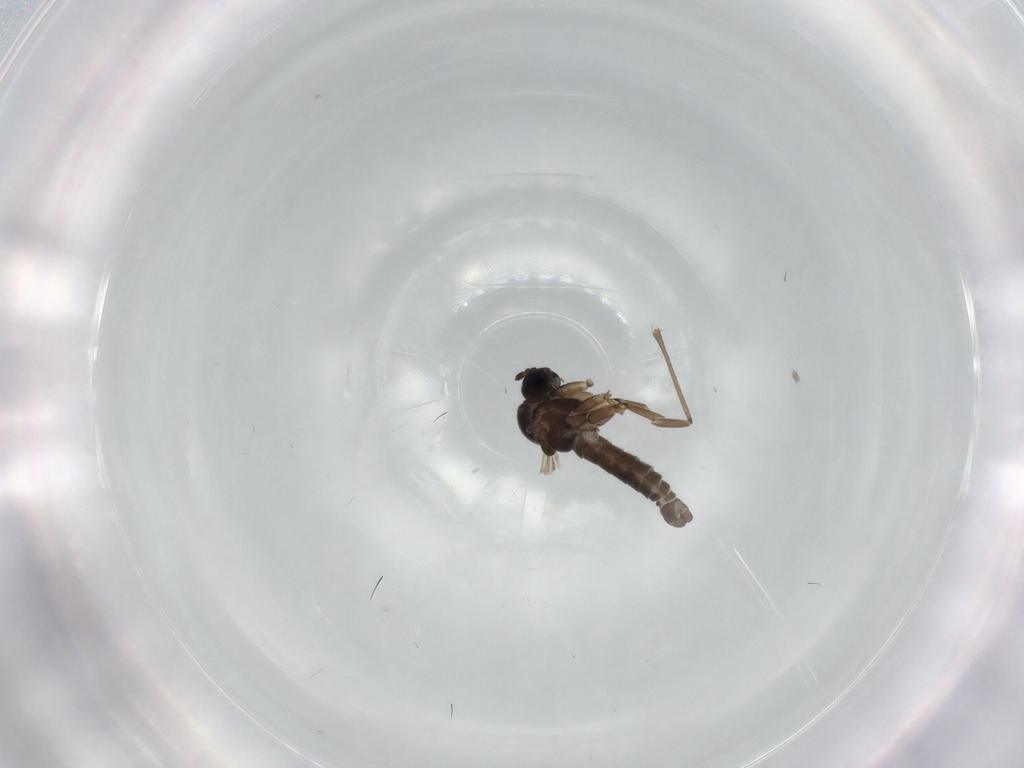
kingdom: Animalia
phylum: Arthropoda
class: Insecta
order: Diptera
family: Sciaridae
